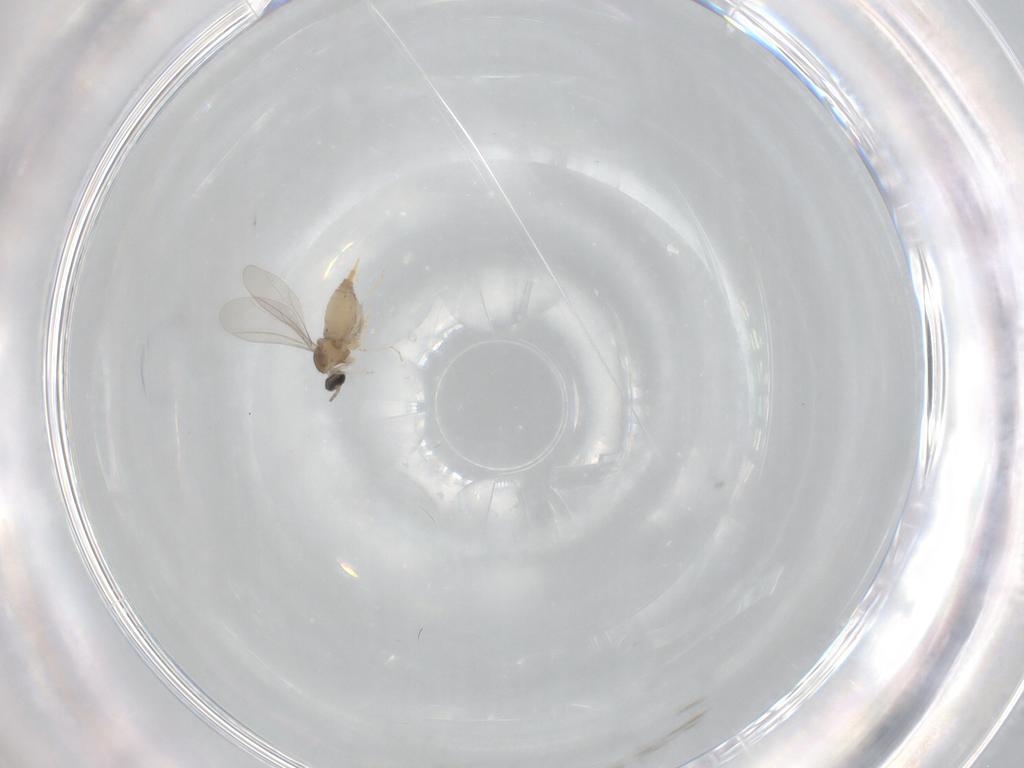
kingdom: Animalia
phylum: Arthropoda
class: Insecta
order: Diptera
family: Cecidomyiidae
